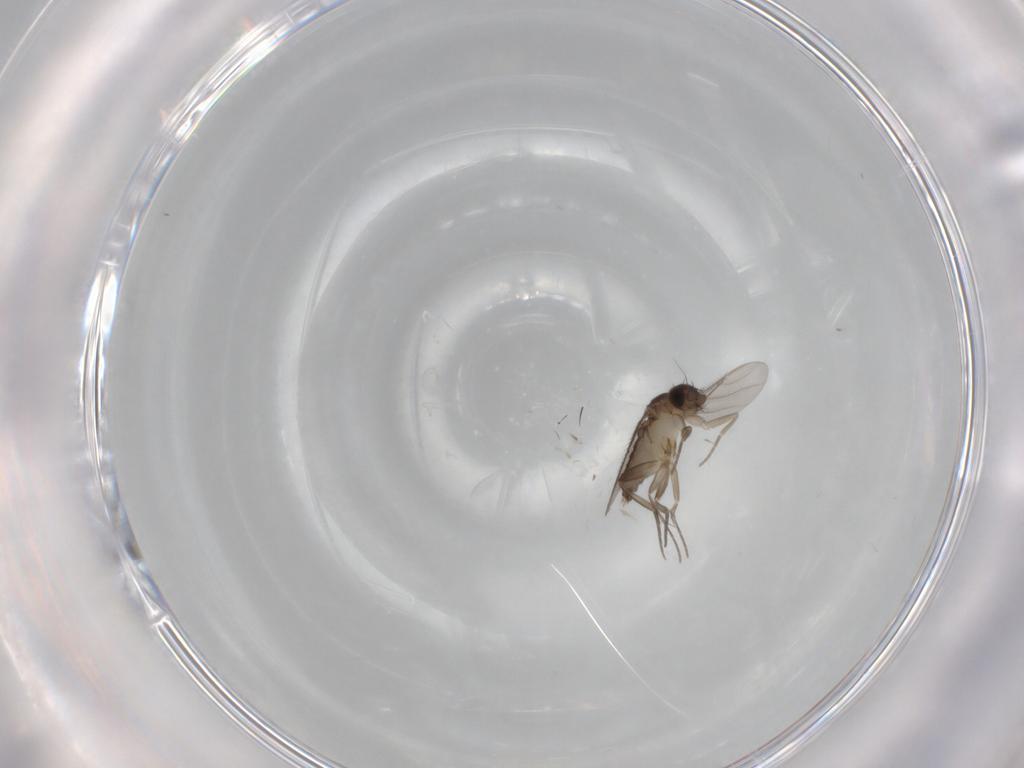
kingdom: Animalia
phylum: Arthropoda
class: Insecta
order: Diptera
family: Phoridae
